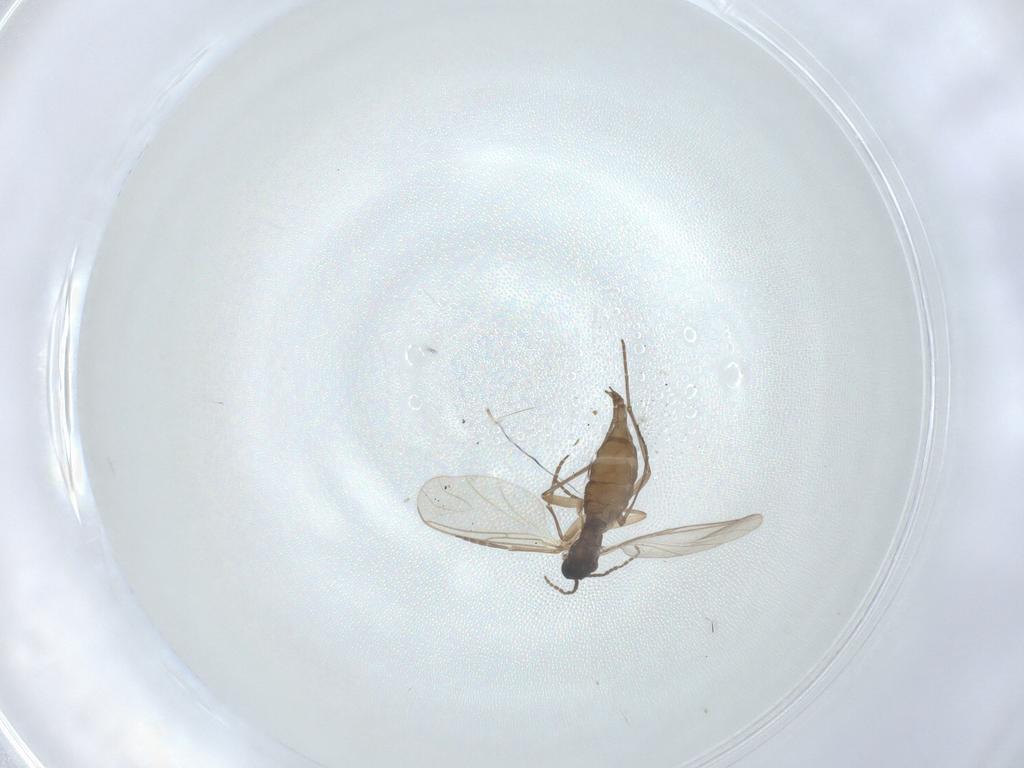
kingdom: Animalia
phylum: Arthropoda
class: Insecta
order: Diptera
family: Sciaridae
